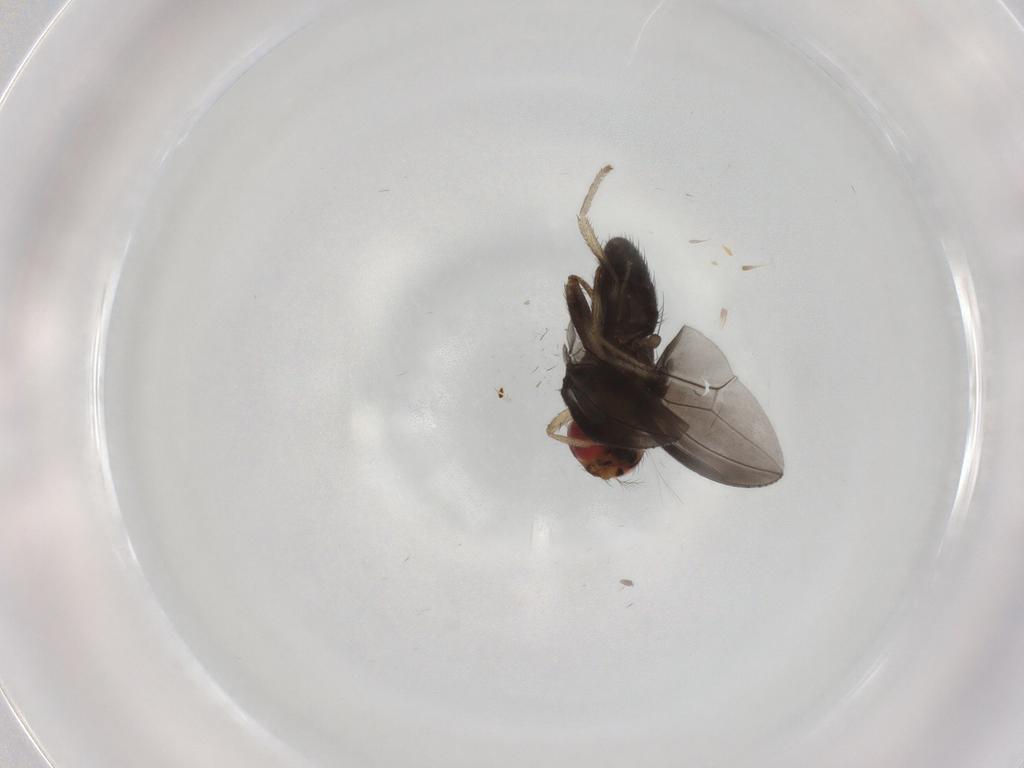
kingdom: Animalia
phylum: Arthropoda
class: Insecta
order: Diptera
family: Drosophilidae
